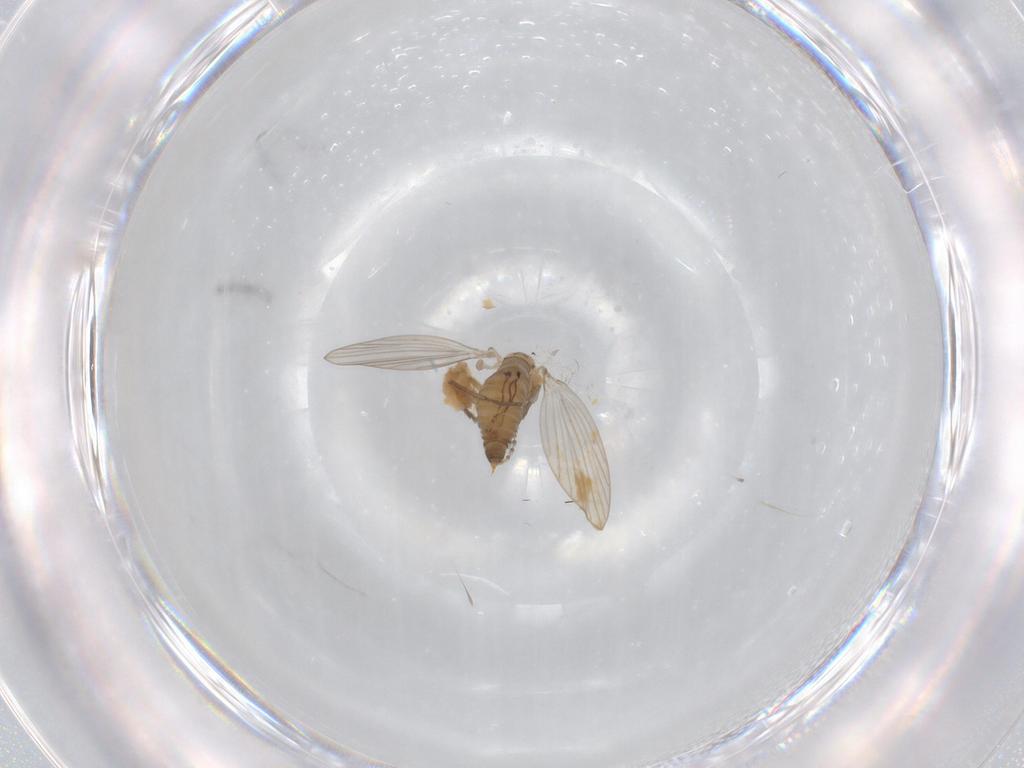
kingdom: Animalia
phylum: Arthropoda
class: Insecta
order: Diptera
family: Psychodidae
